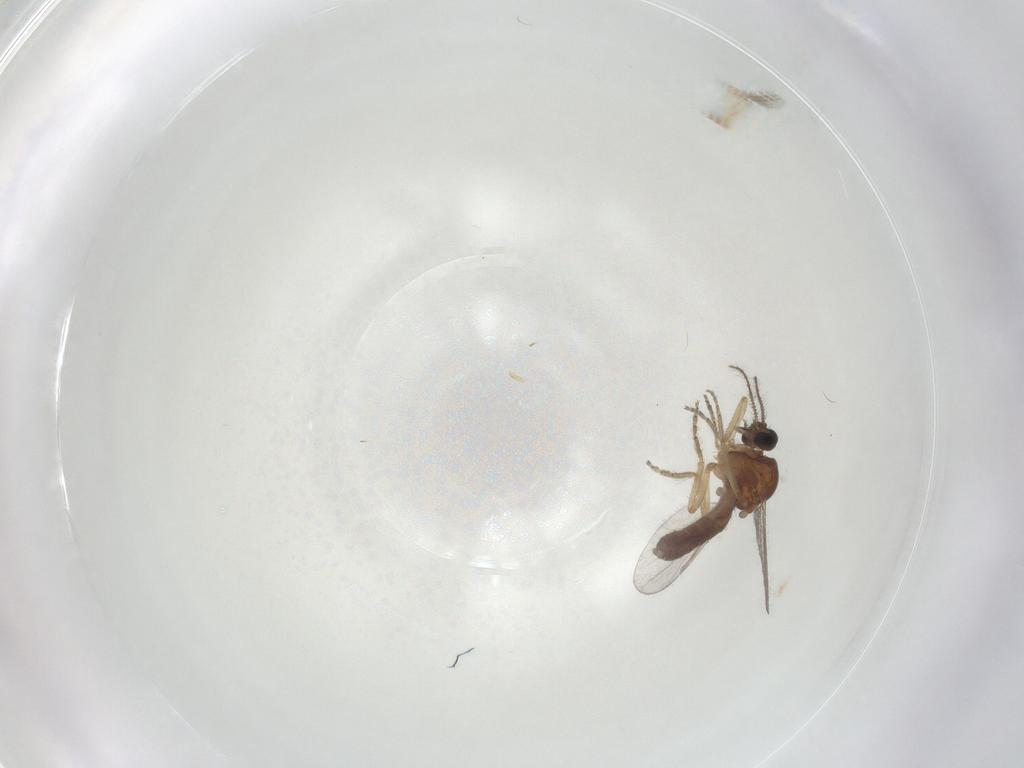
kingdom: Animalia
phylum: Arthropoda
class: Insecta
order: Diptera
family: Ceratopogonidae
